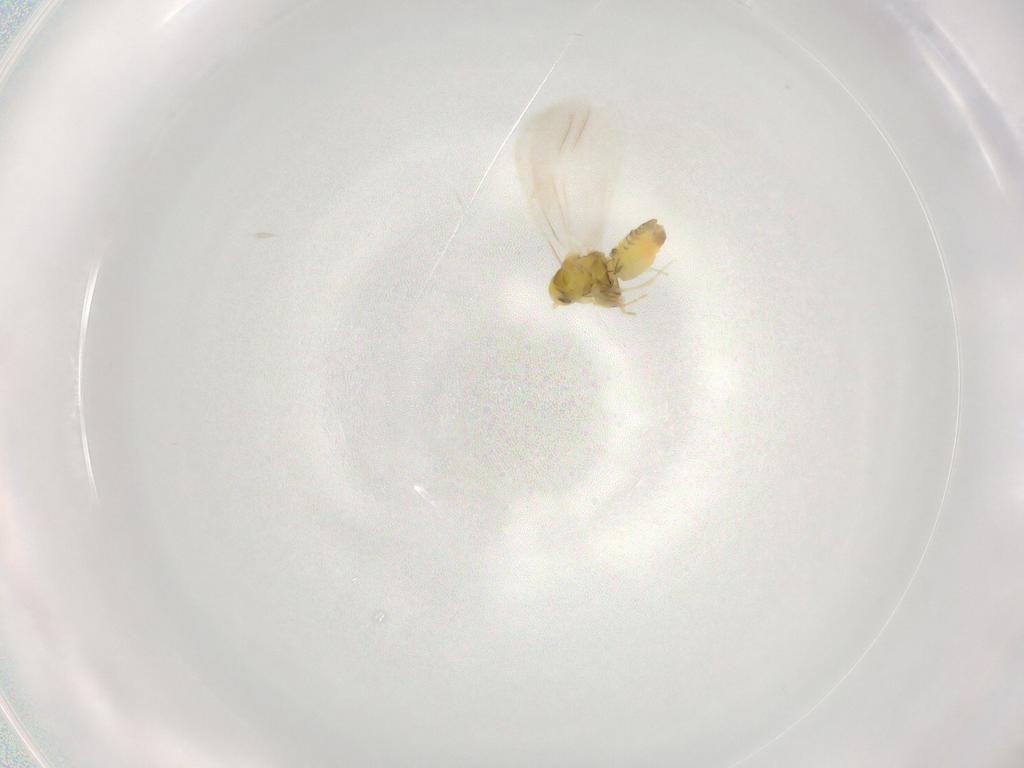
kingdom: Animalia
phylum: Arthropoda
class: Insecta
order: Hemiptera
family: Aleyrodidae
